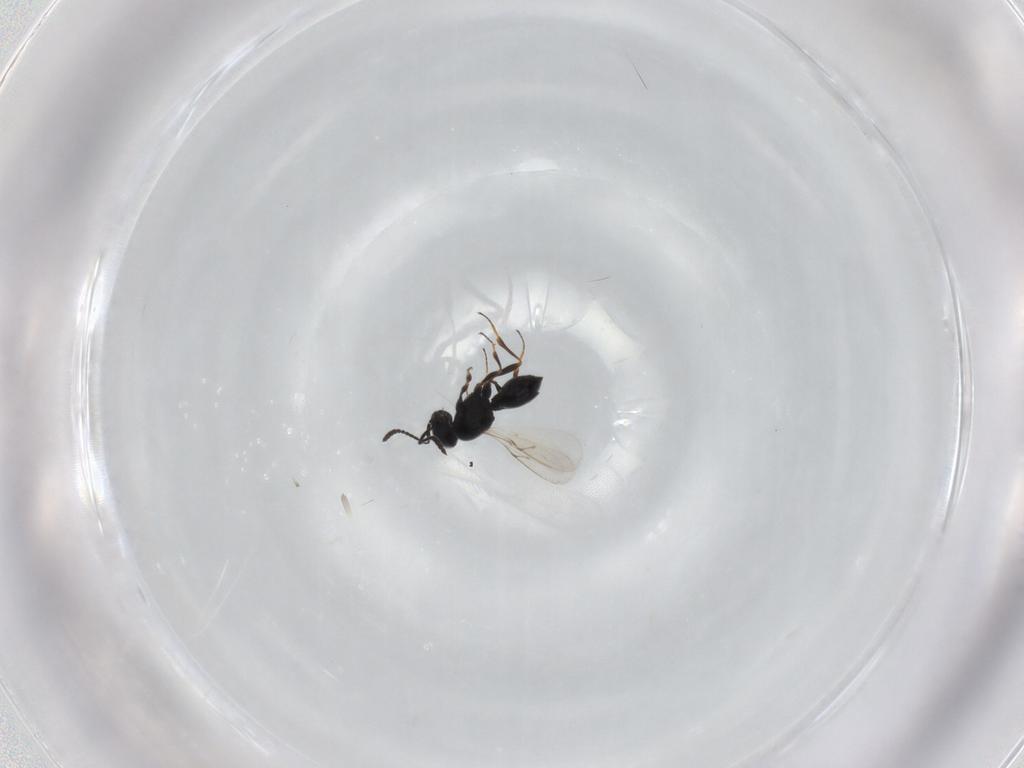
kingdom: Animalia
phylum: Arthropoda
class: Insecta
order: Hymenoptera
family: Scelionidae
